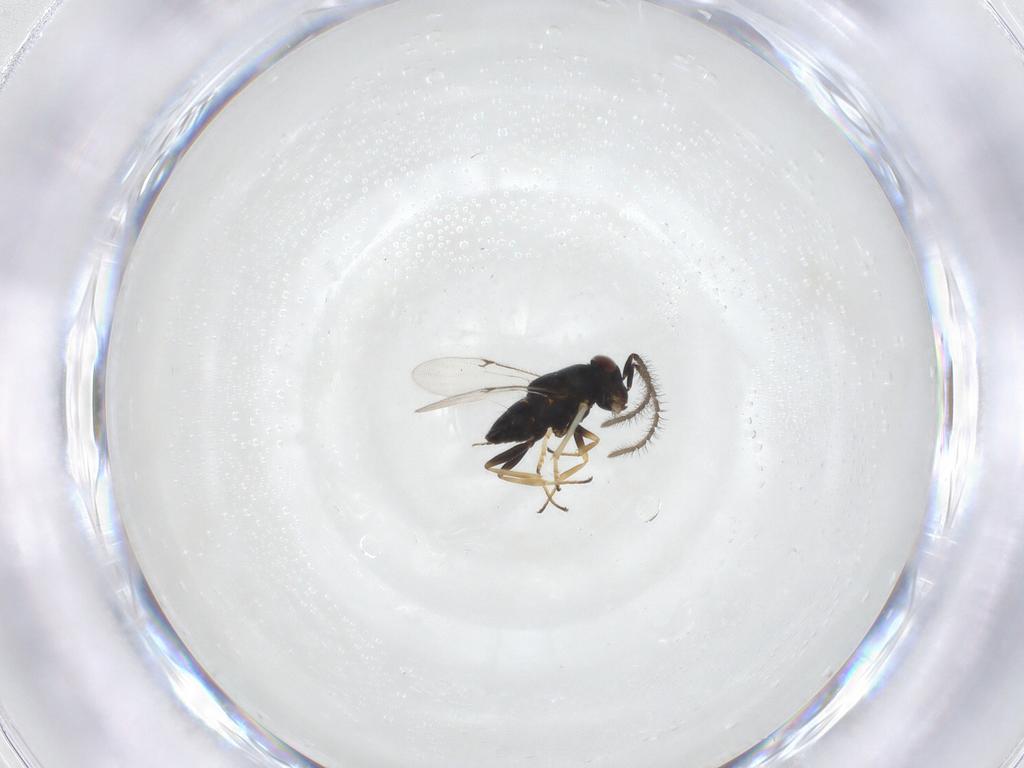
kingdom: Animalia
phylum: Arthropoda
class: Insecta
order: Hymenoptera
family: Encyrtidae
